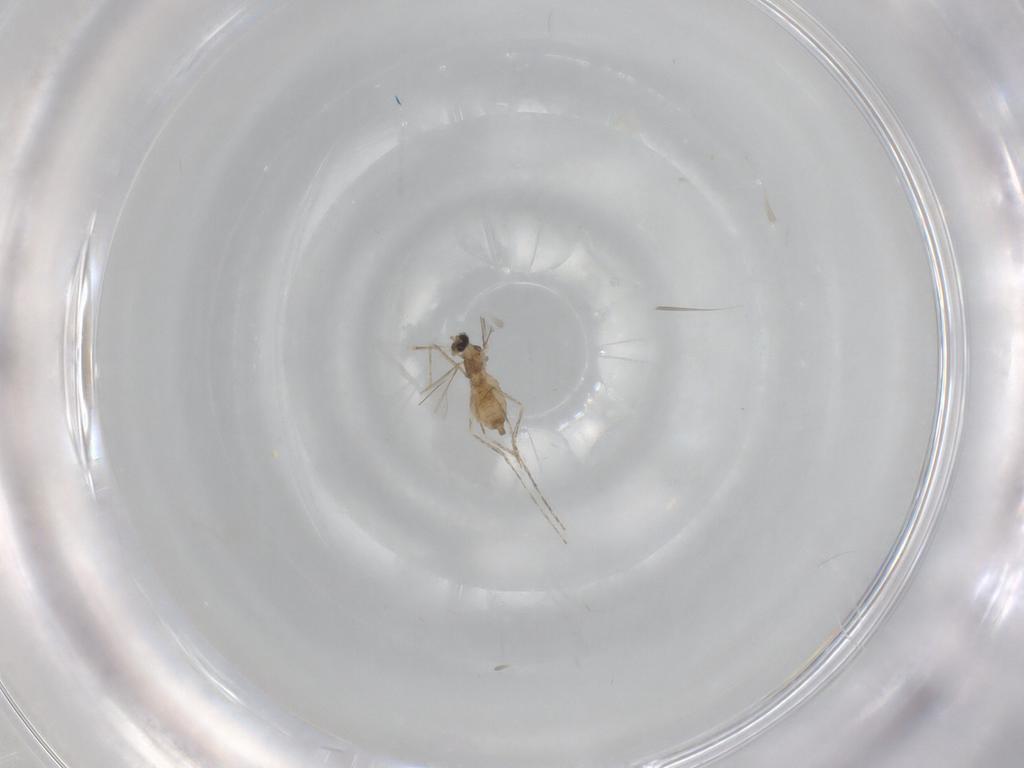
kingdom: Animalia
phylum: Arthropoda
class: Insecta
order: Diptera
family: Cecidomyiidae
